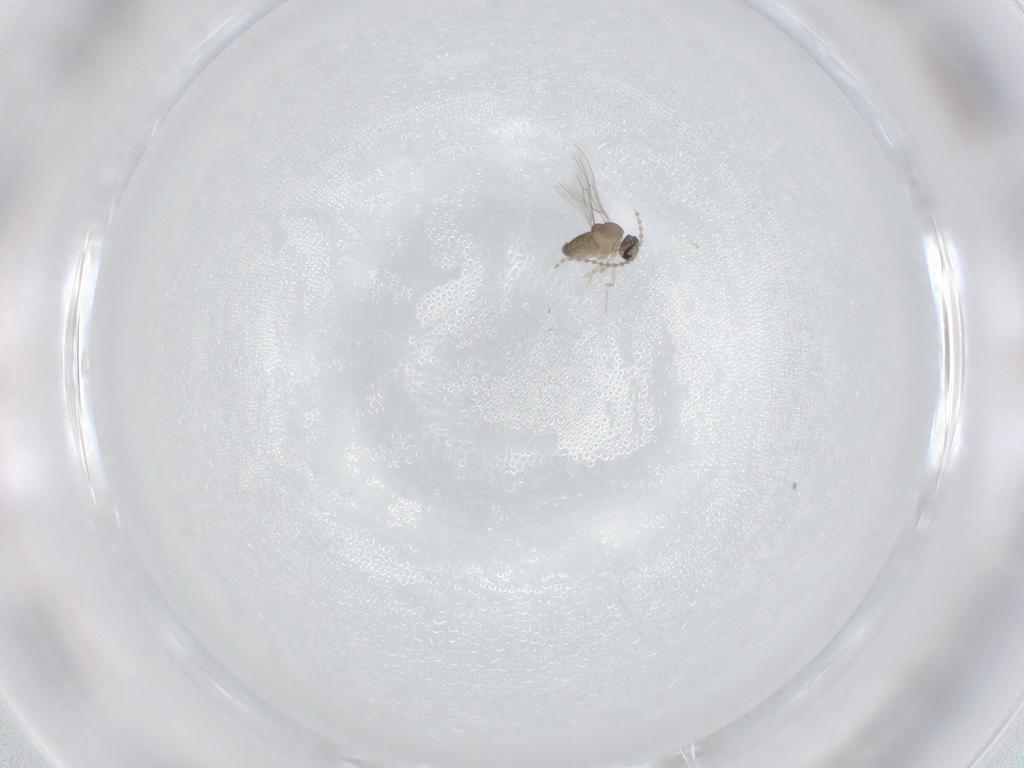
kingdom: Animalia
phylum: Arthropoda
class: Insecta
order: Diptera
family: Cecidomyiidae
